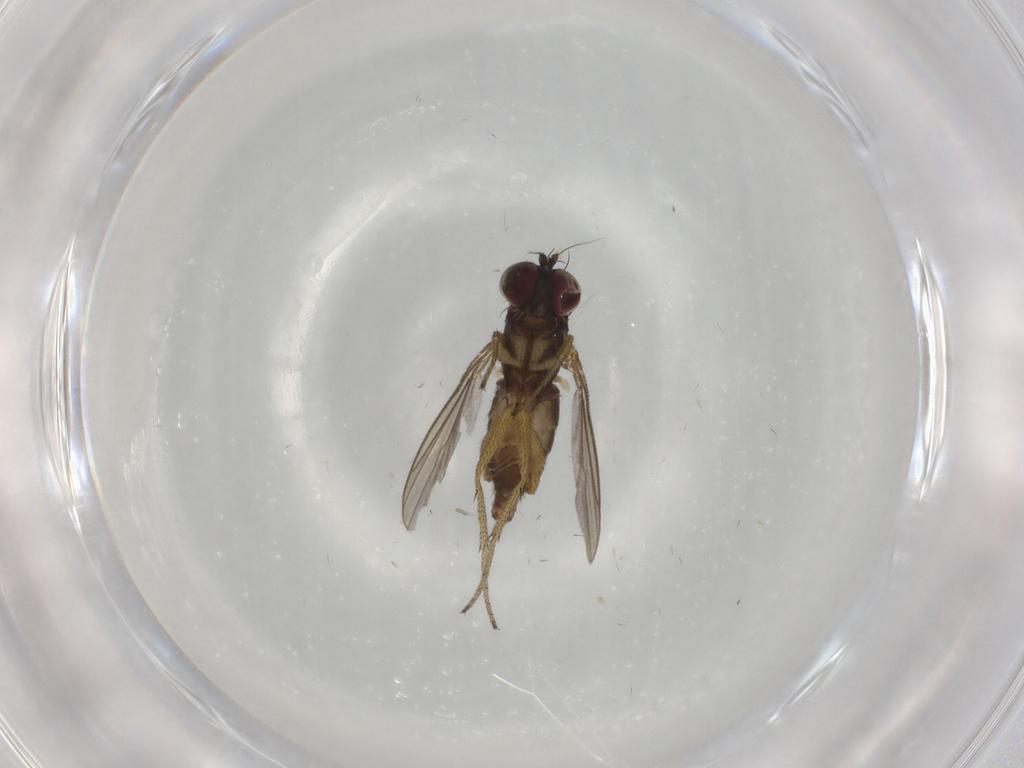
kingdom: Animalia
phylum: Arthropoda
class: Insecta
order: Diptera
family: Dolichopodidae
